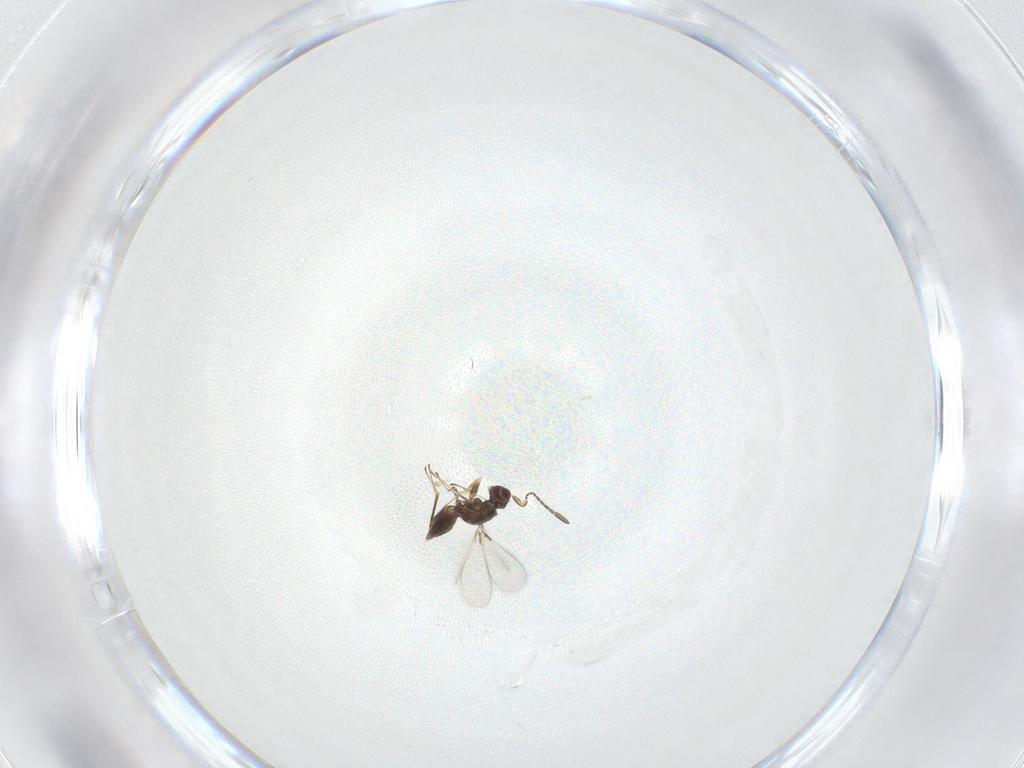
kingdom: Animalia
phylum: Arthropoda
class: Insecta
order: Hymenoptera
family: Mymaridae
